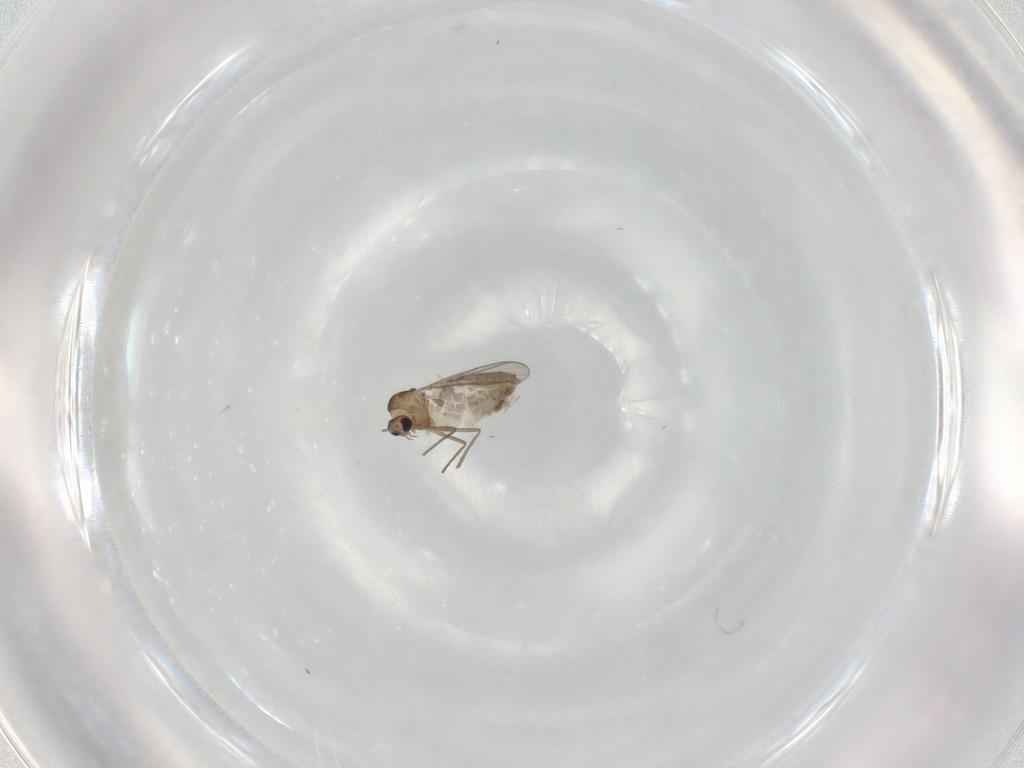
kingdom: Animalia
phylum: Arthropoda
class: Insecta
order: Diptera
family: Chironomidae
